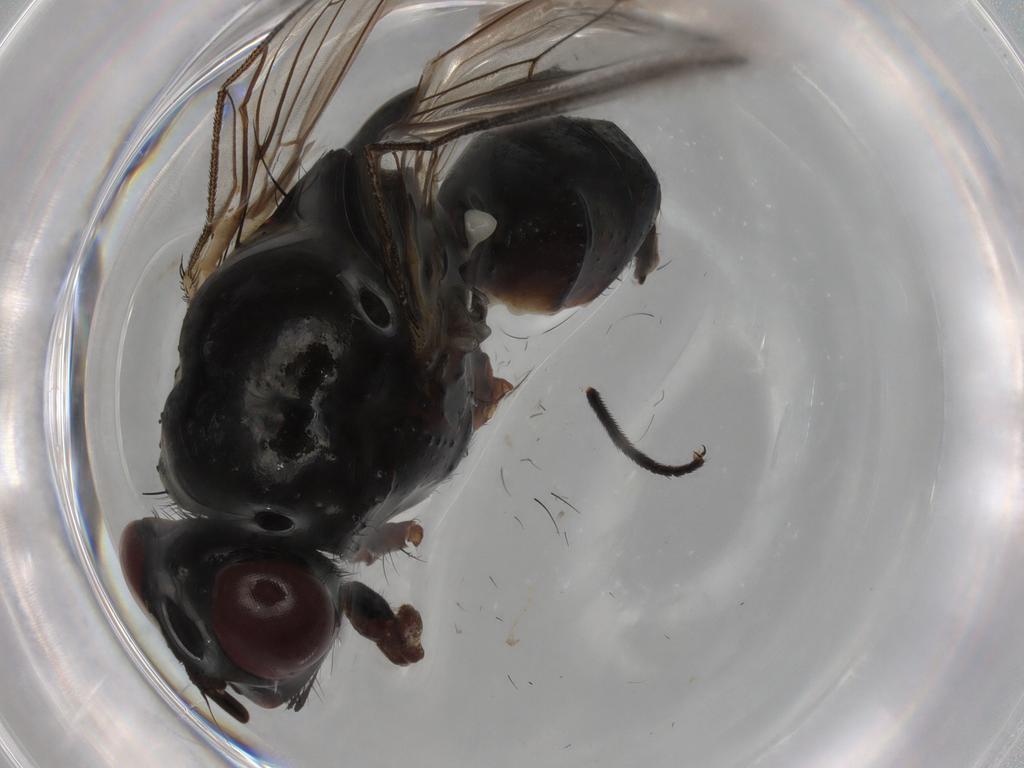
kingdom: Animalia
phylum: Arthropoda
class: Insecta
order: Diptera
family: Anthomyiidae
